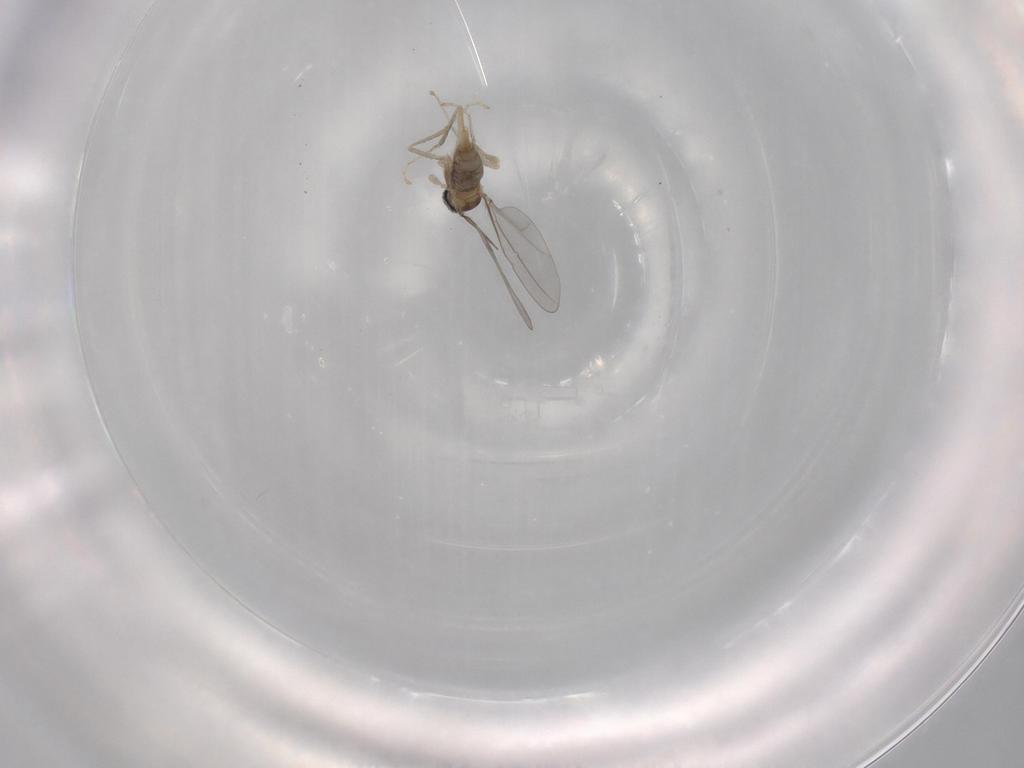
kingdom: Animalia
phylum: Arthropoda
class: Insecta
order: Diptera
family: Cecidomyiidae
